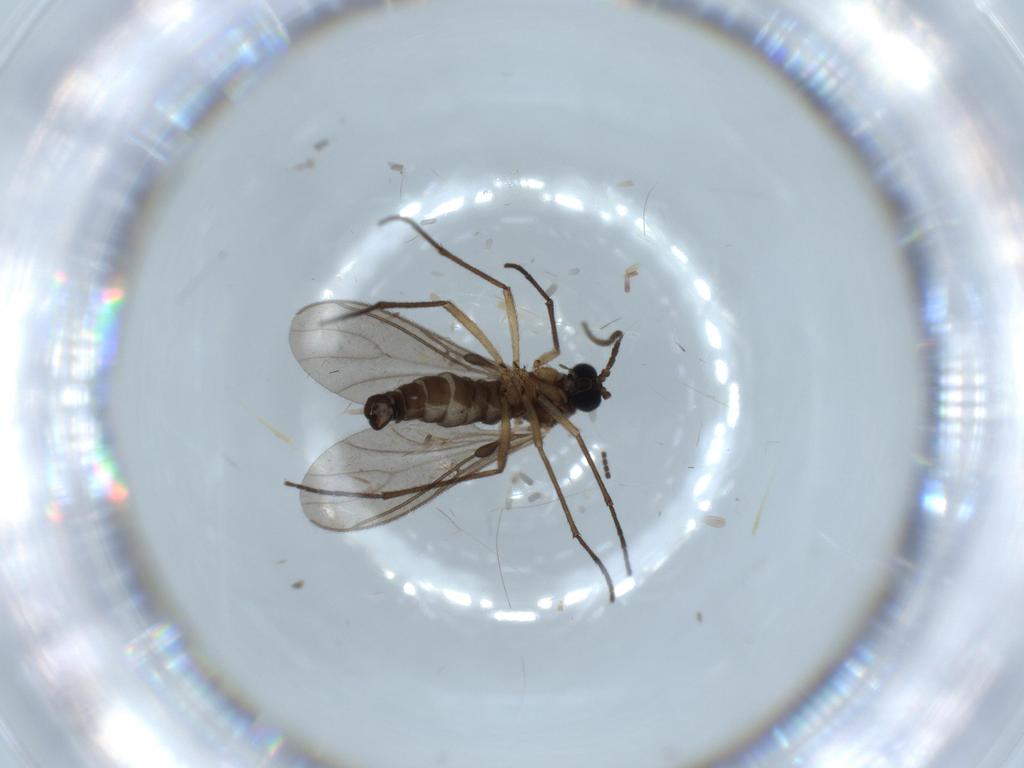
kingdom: Animalia
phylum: Arthropoda
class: Insecta
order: Diptera
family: Sciaridae
